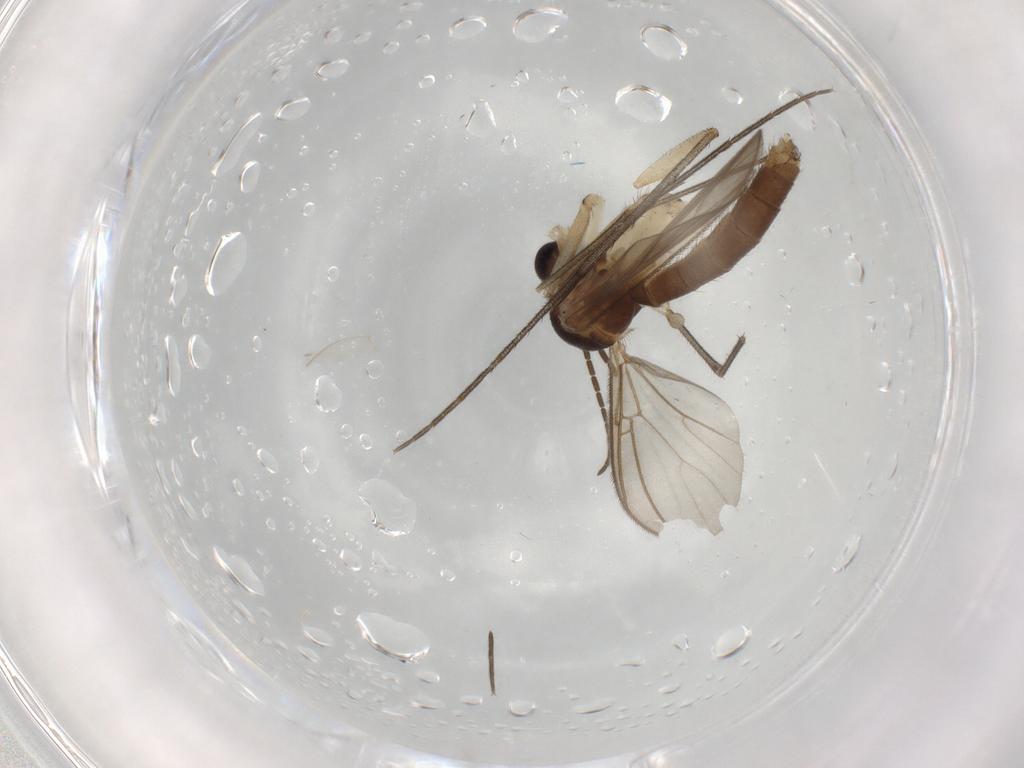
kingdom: Animalia
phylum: Arthropoda
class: Insecta
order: Diptera
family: Mycetophilidae
